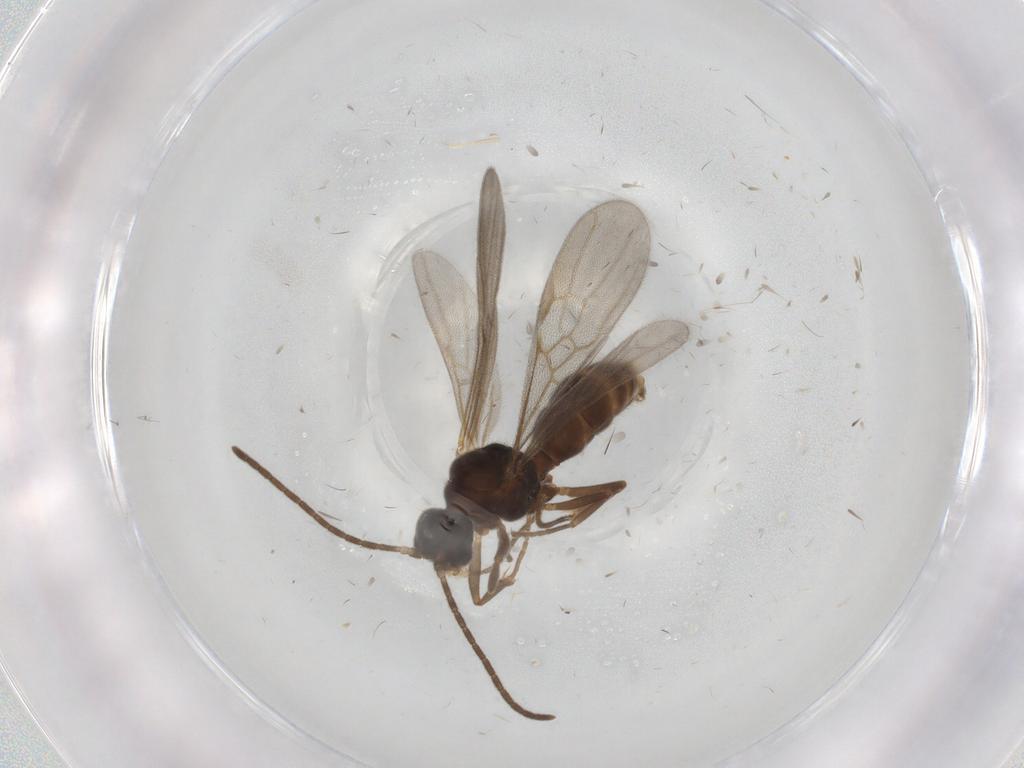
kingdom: Animalia
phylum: Arthropoda
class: Insecta
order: Hymenoptera
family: Formicidae
